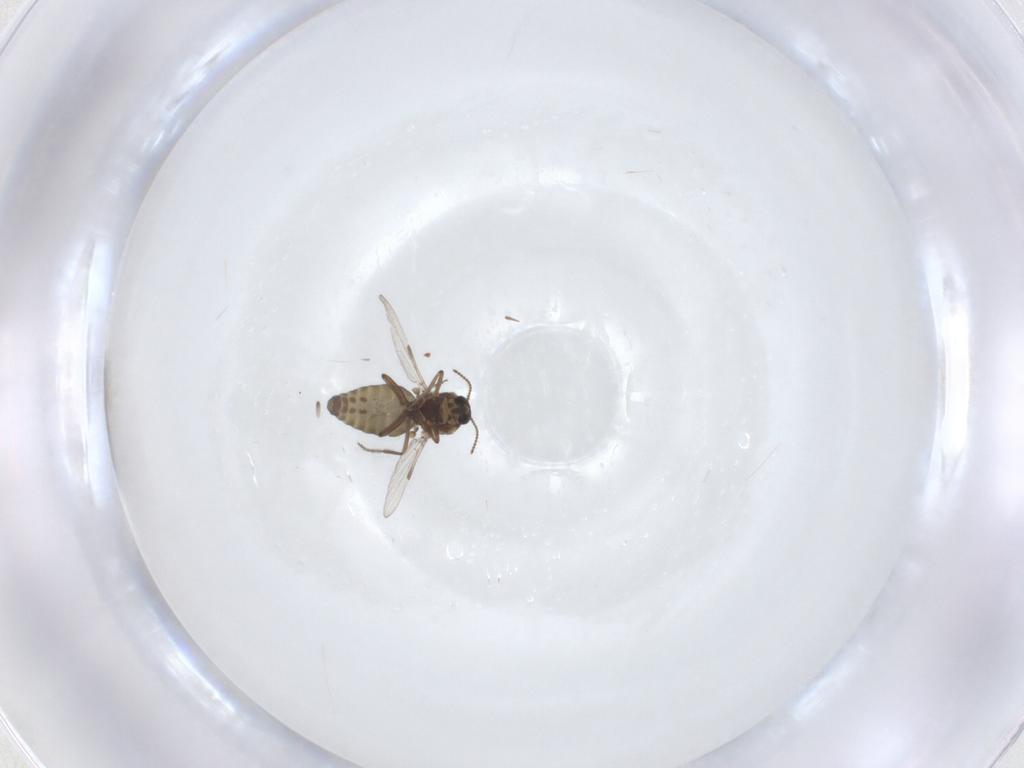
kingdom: Animalia
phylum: Arthropoda
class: Insecta
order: Diptera
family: Ceratopogonidae
